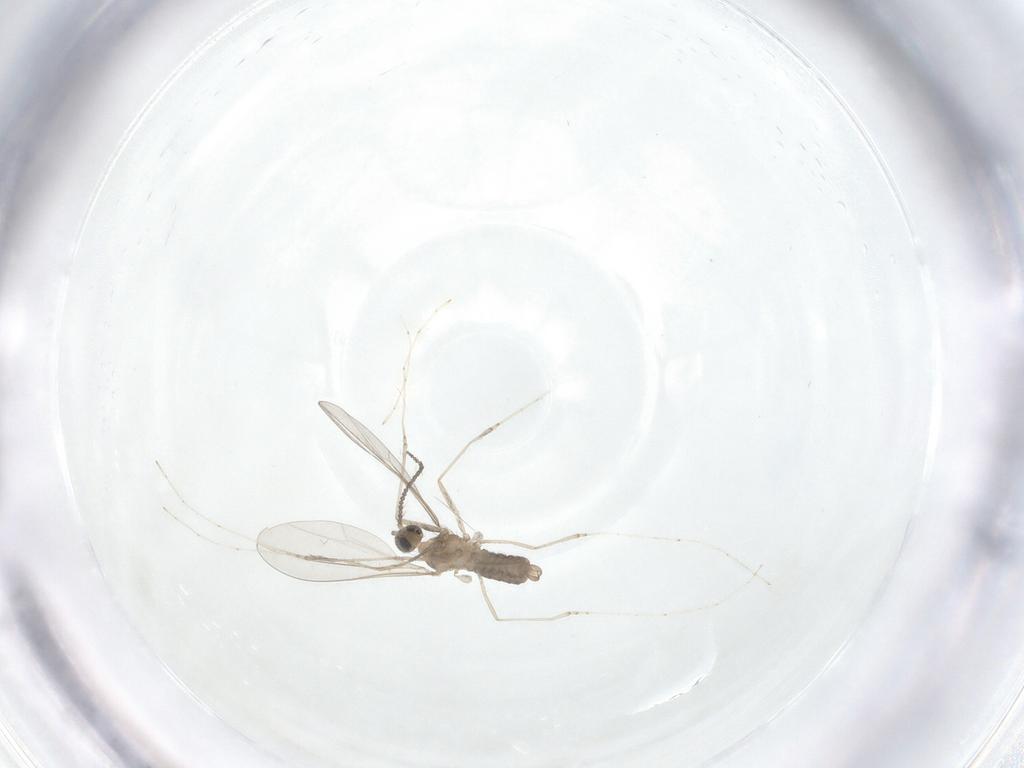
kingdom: Animalia
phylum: Arthropoda
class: Insecta
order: Diptera
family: Cecidomyiidae
